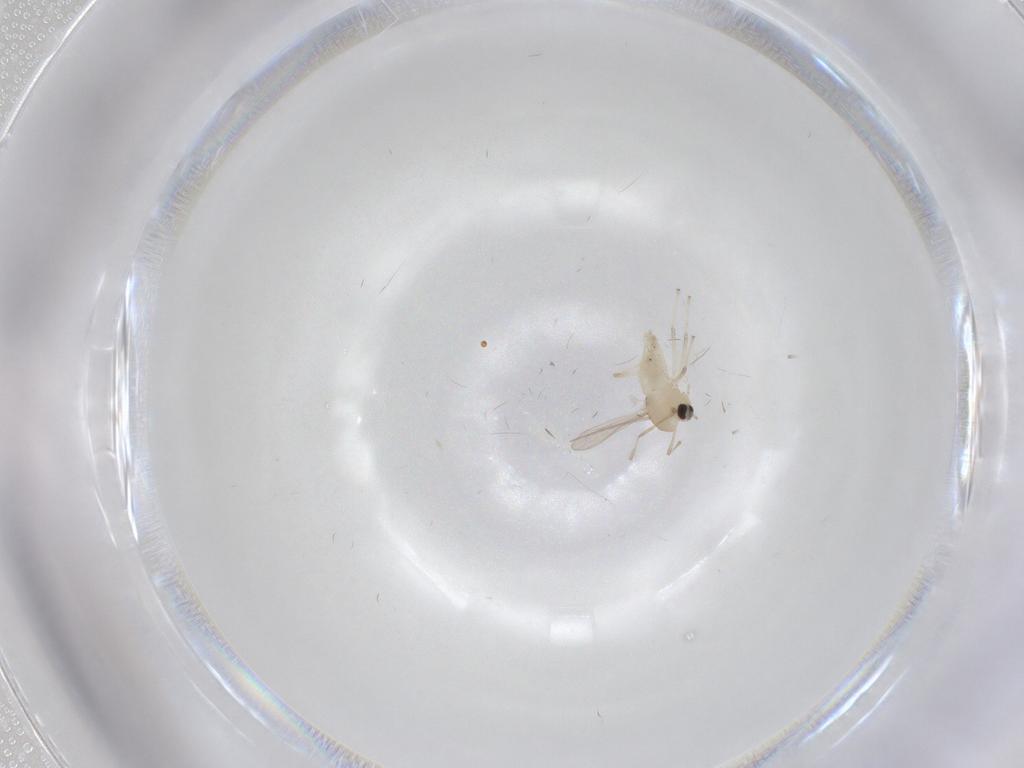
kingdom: Animalia
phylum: Arthropoda
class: Insecta
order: Diptera
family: Chironomidae
